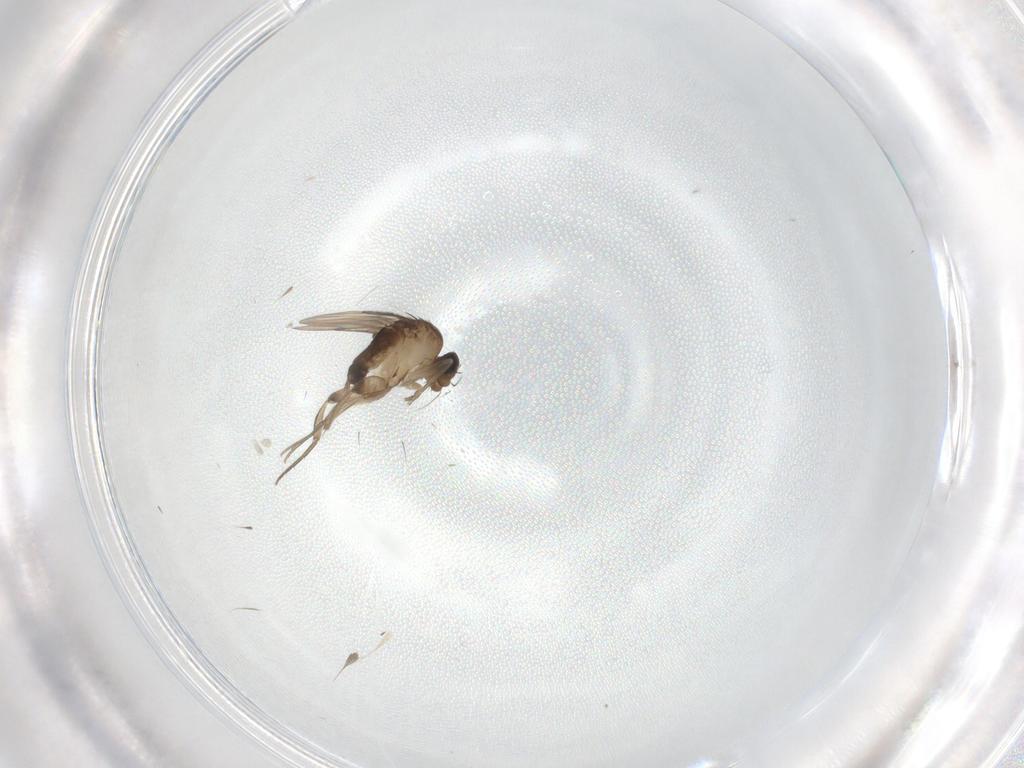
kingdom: Animalia
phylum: Arthropoda
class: Insecta
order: Diptera
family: Phoridae
